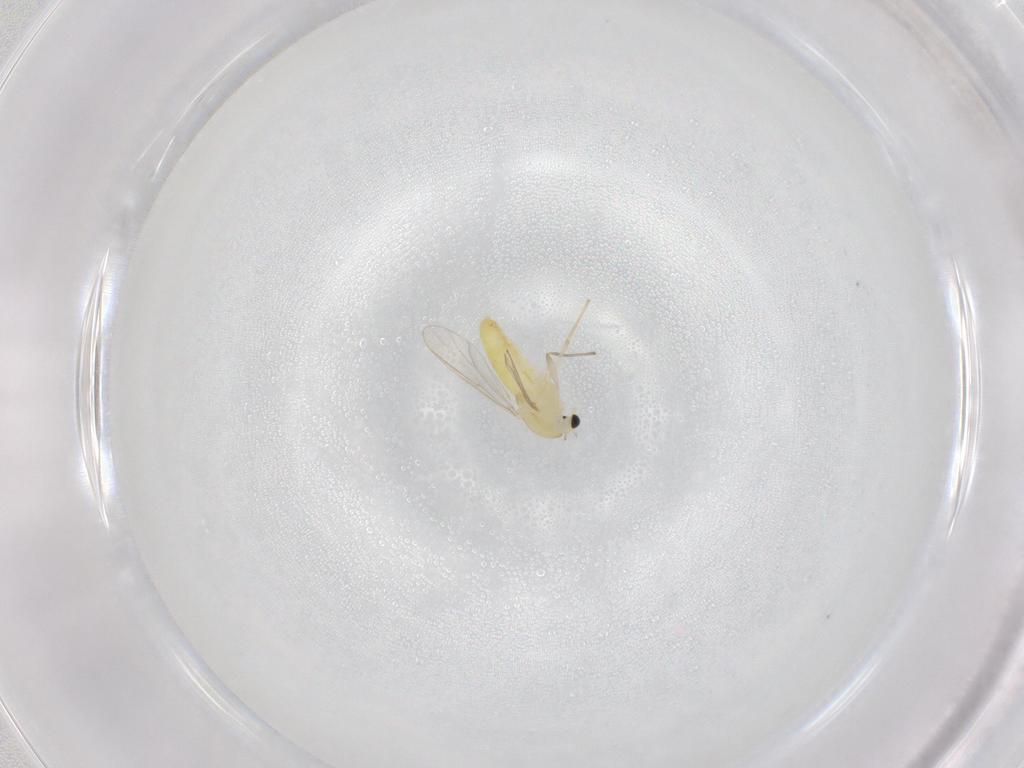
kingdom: Animalia
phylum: Arthropoda
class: Insecta
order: Diptera
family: Chironomidae
